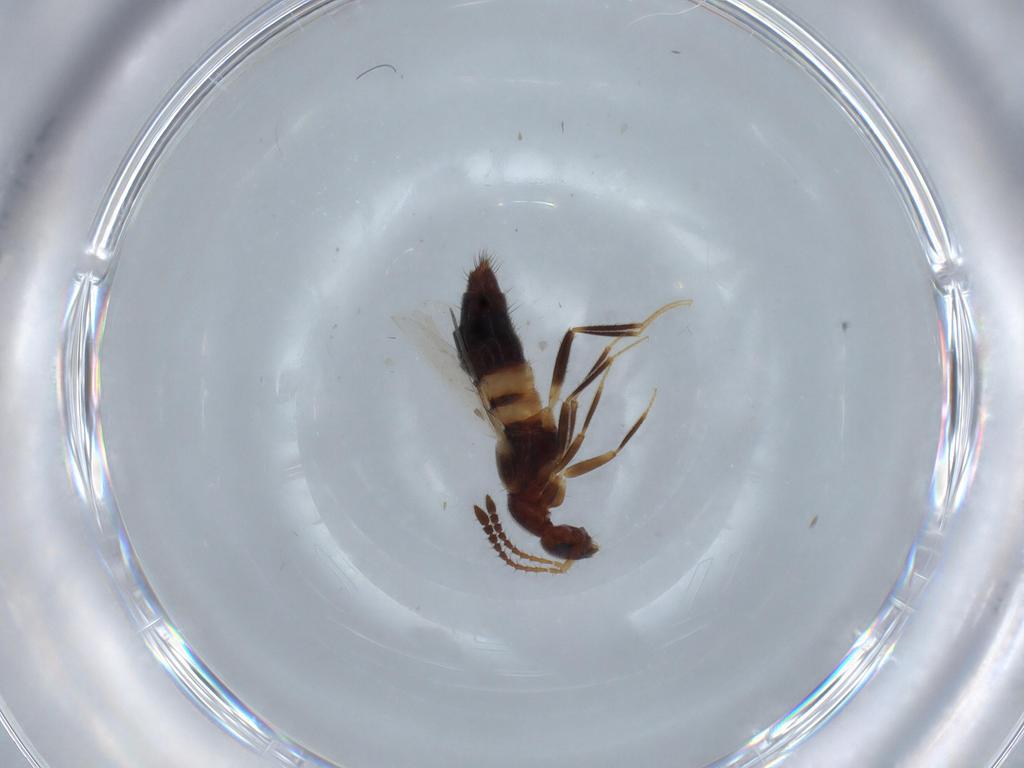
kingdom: Animalia
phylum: Arthropoda
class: Insecta
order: Coleoptera
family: Staphylinidae
